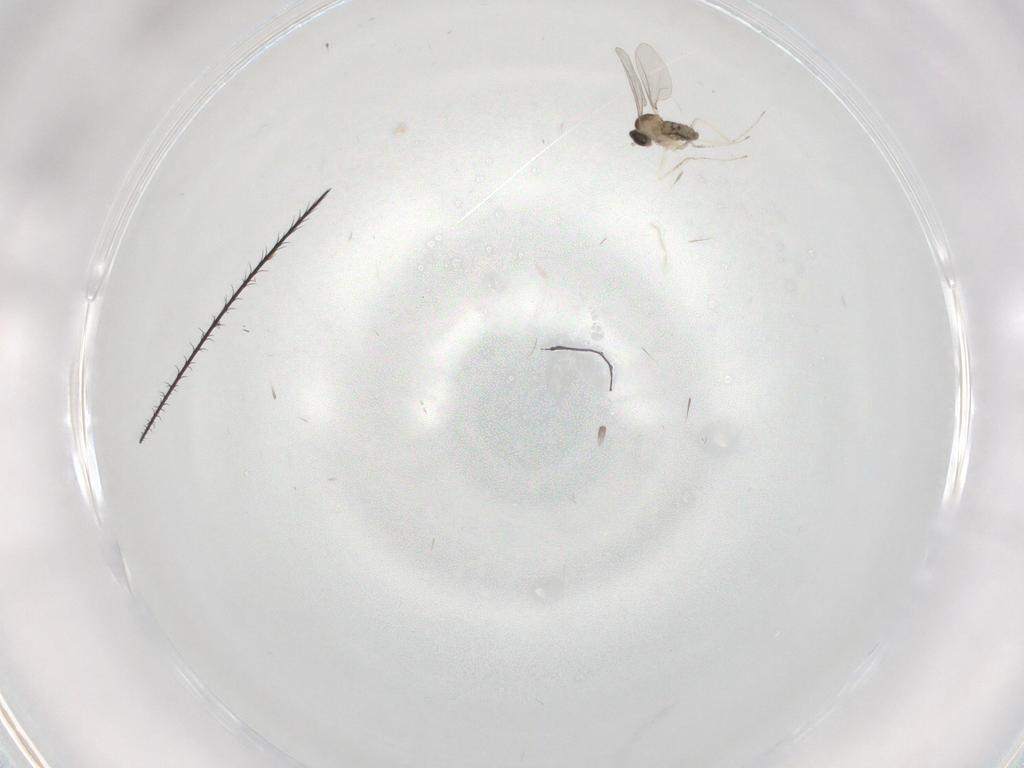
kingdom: Animalia
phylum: Arthropoda
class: Insecta
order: Diptera
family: Cecidomyiidae
